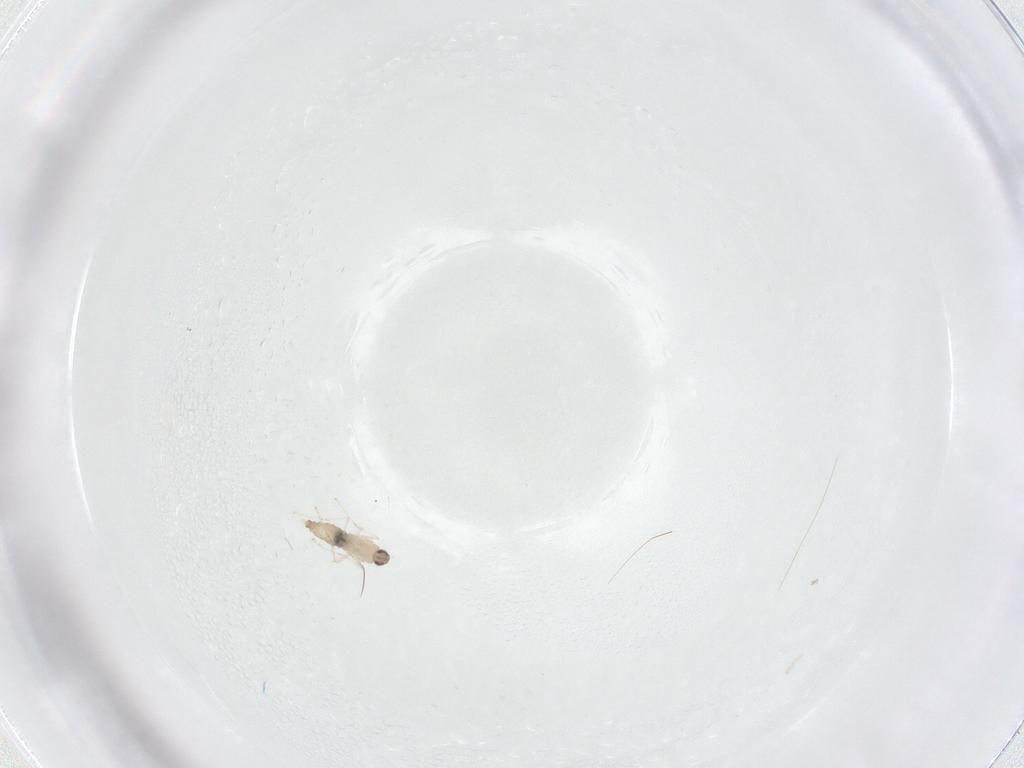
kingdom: Animalia
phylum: Arthropoda
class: Insecta
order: Diptera
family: Cecidomyiidae
